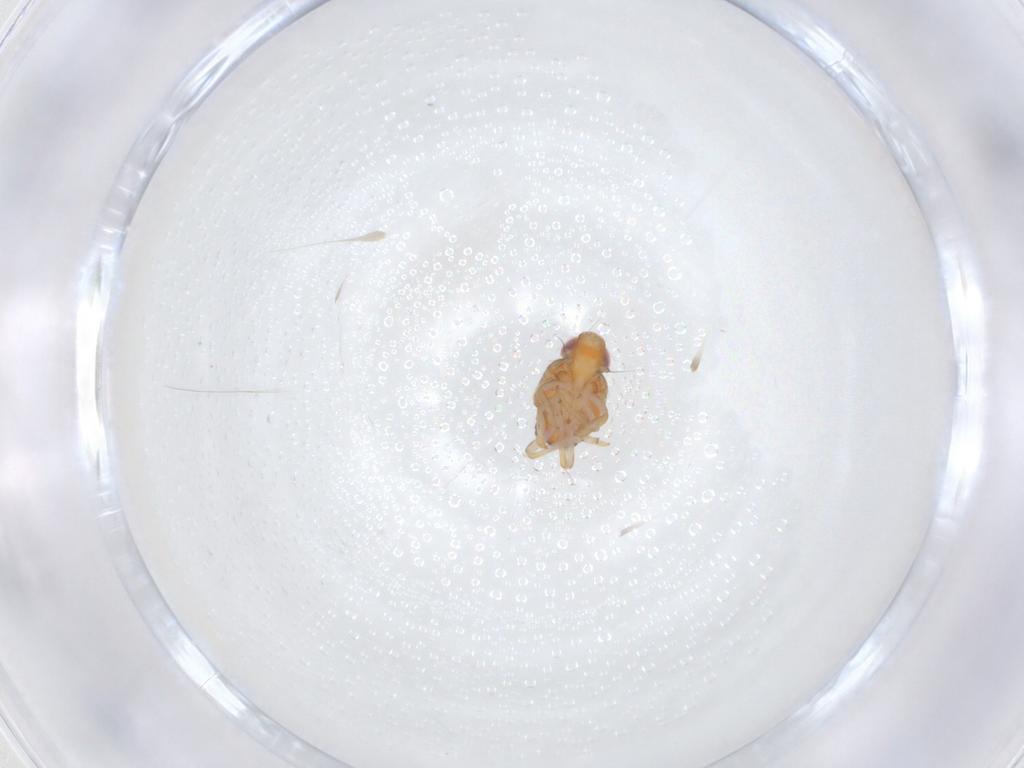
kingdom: Animalia
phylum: Arthropoda
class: Insecta
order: Hemiptera
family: Issidae
